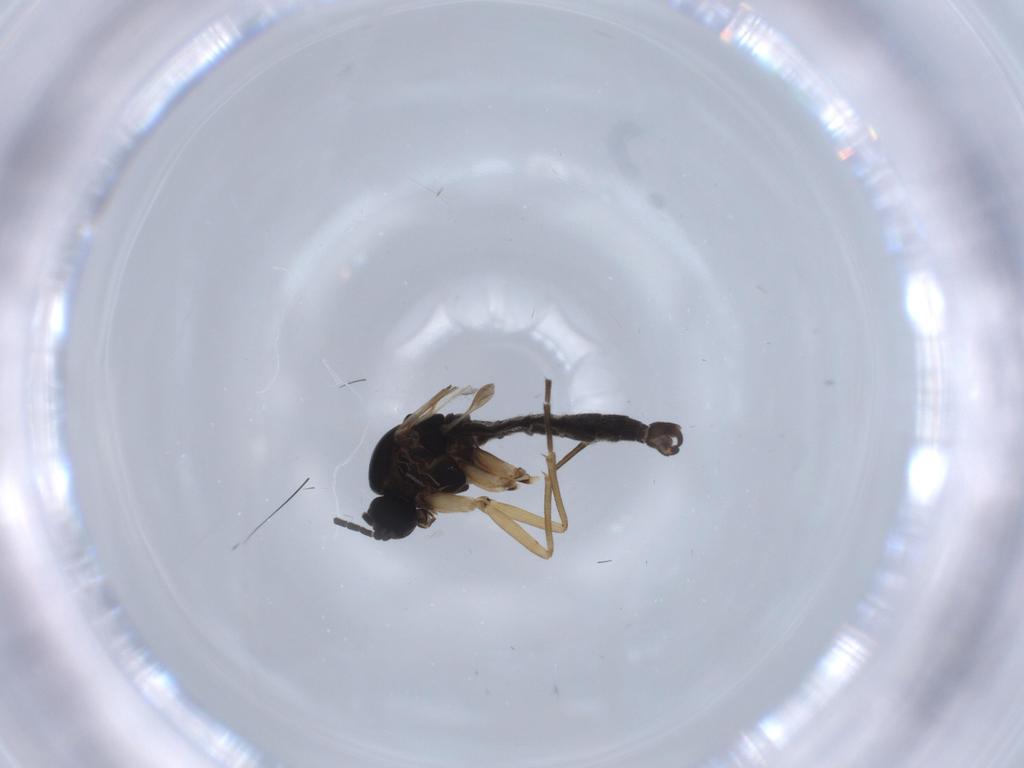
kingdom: Animalia
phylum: Arthropoda
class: Insecta
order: Diptera
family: Sciaridae
